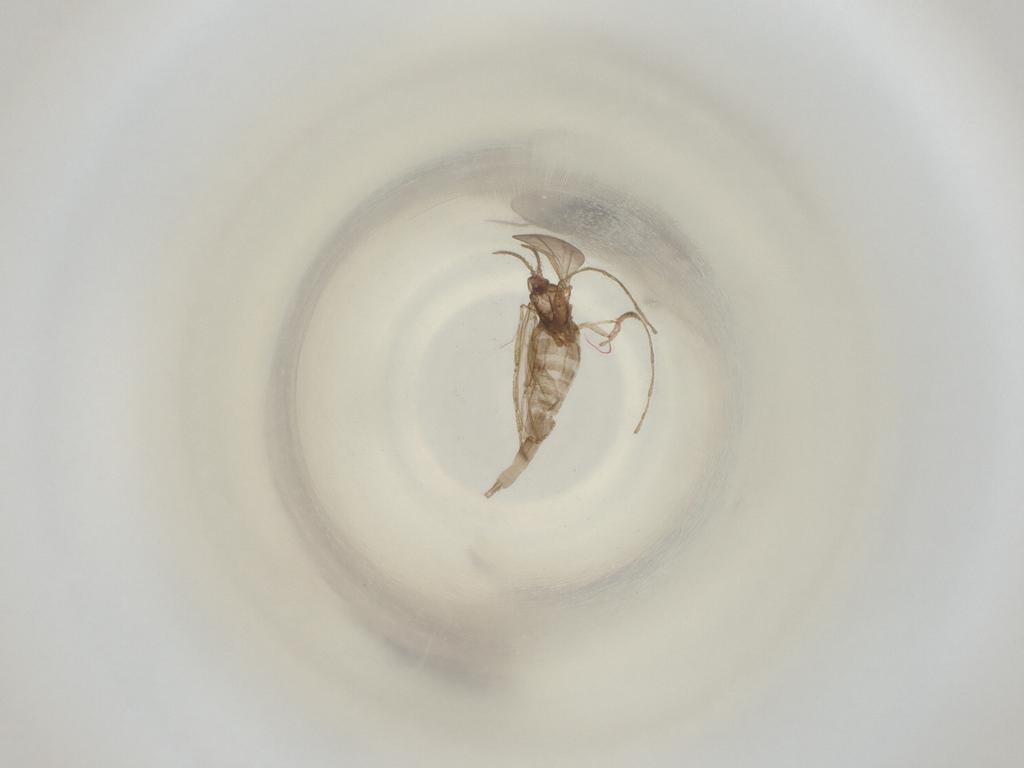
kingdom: Animalia
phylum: Arthropoda
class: Insecta
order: Diptera
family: Cecidomyiidae
